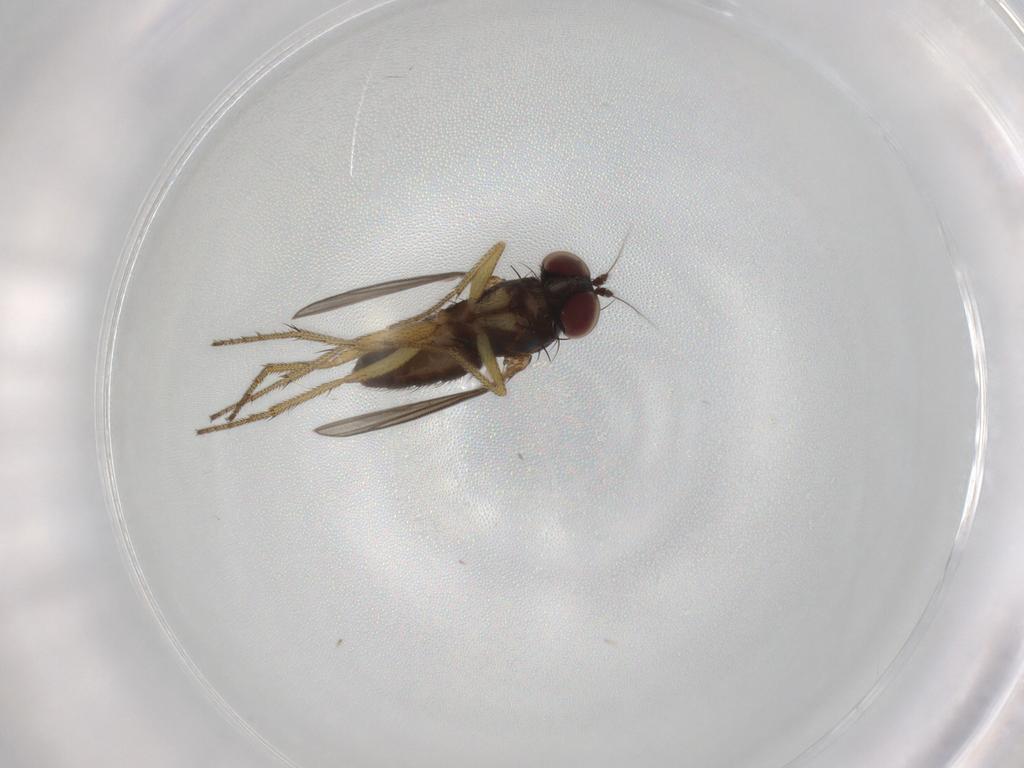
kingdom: Animalia
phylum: Arthropoda
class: Insecta
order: Diptera
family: Dolichopodidae
